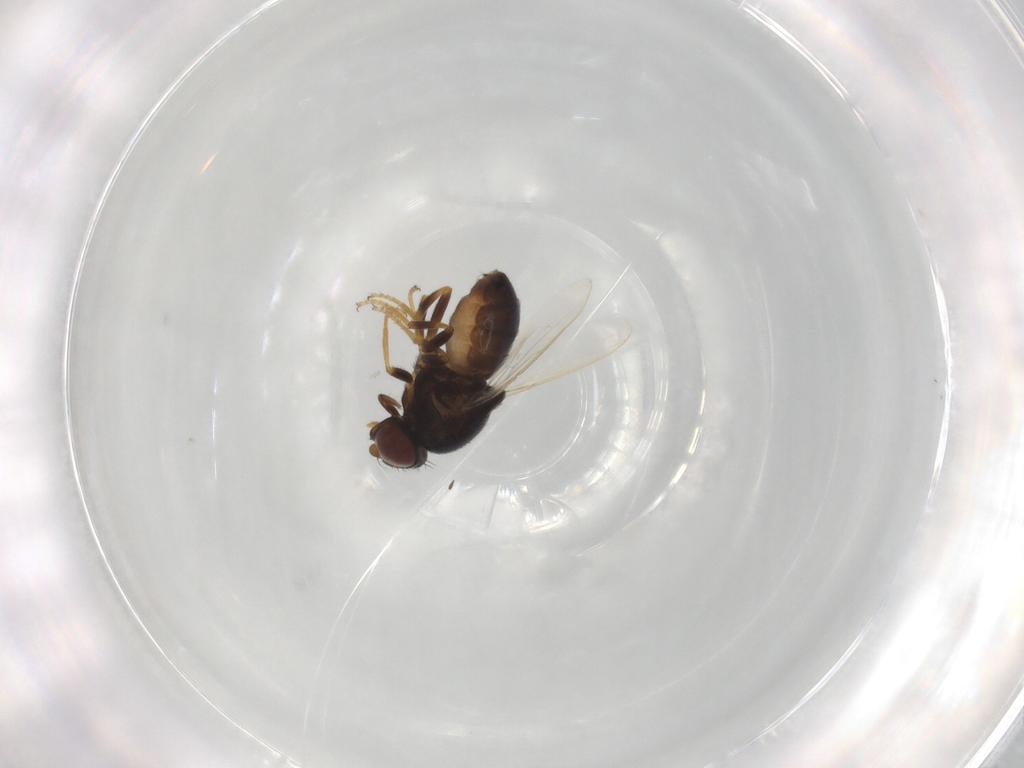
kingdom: Animalia
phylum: Arthropoda
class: Insecta
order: Diptera
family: Chloropidae
